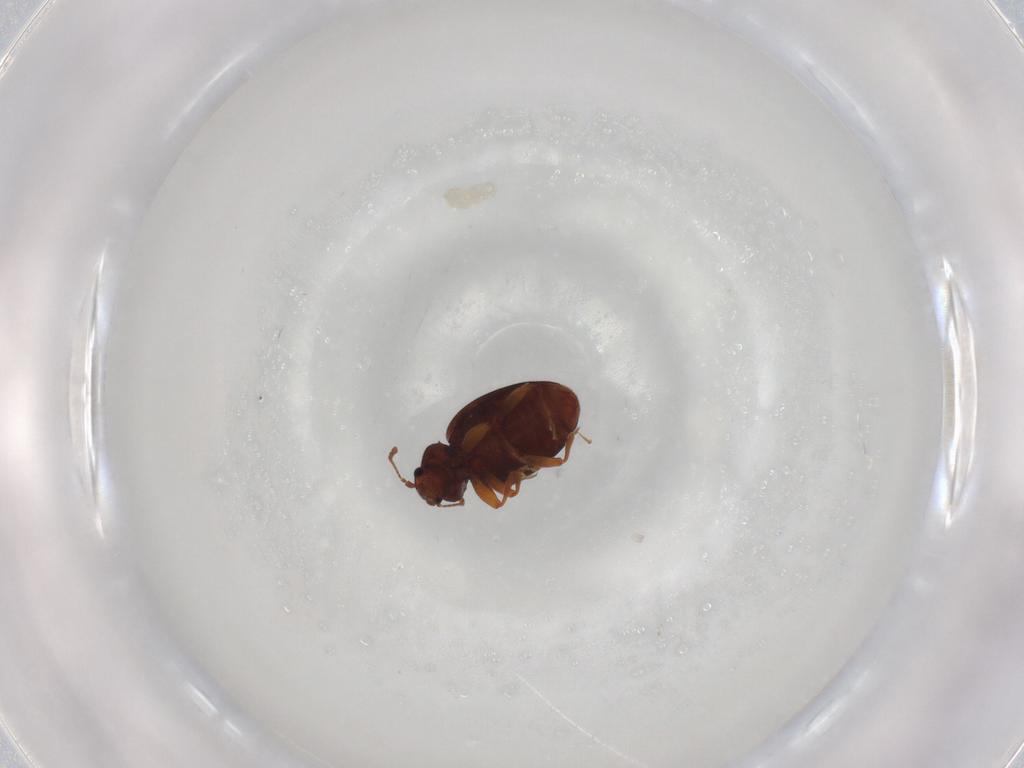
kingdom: Animalia
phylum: Arthropoda
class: Insecta
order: Coleoptera
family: Latridiidae
